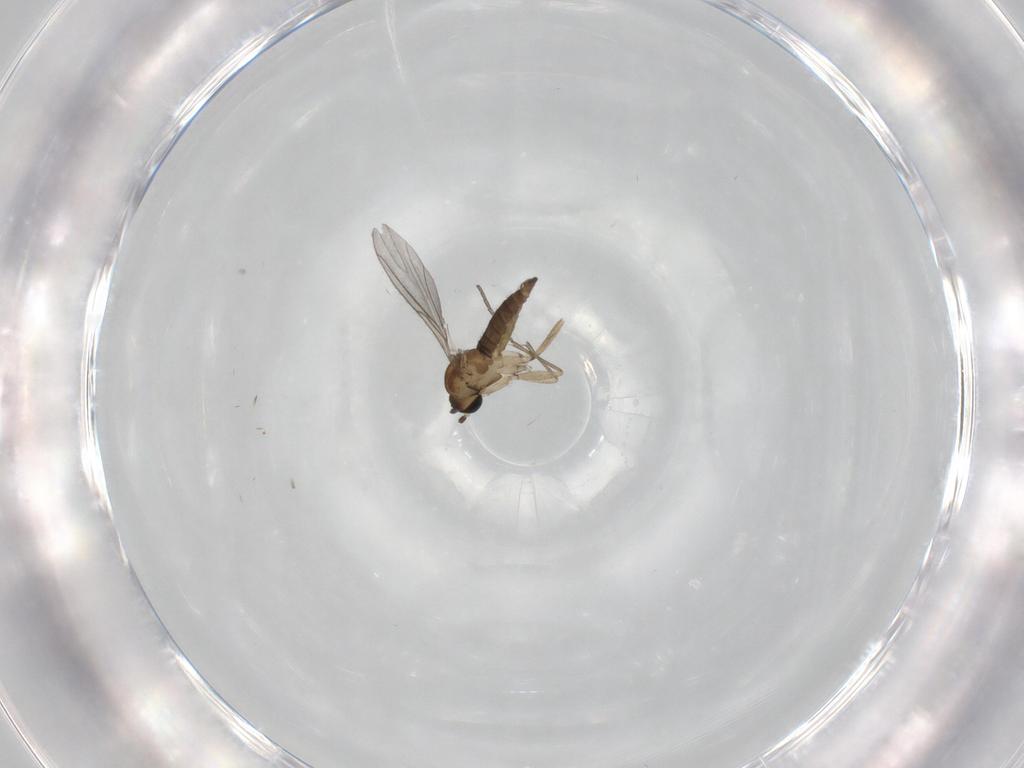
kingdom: Animalia
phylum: Arthropoda
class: Insecta
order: Diptera
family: Sciaridae
